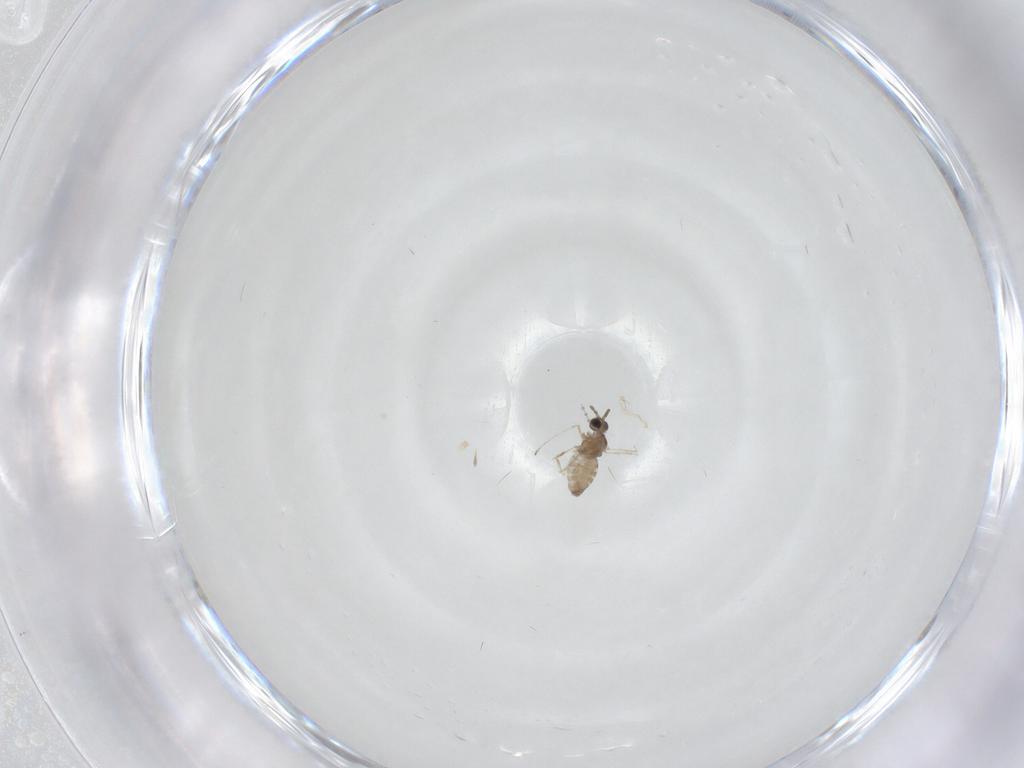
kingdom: Animalia
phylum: Arthropoda
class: Insecta
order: Diptera
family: Cecidomyiidae
